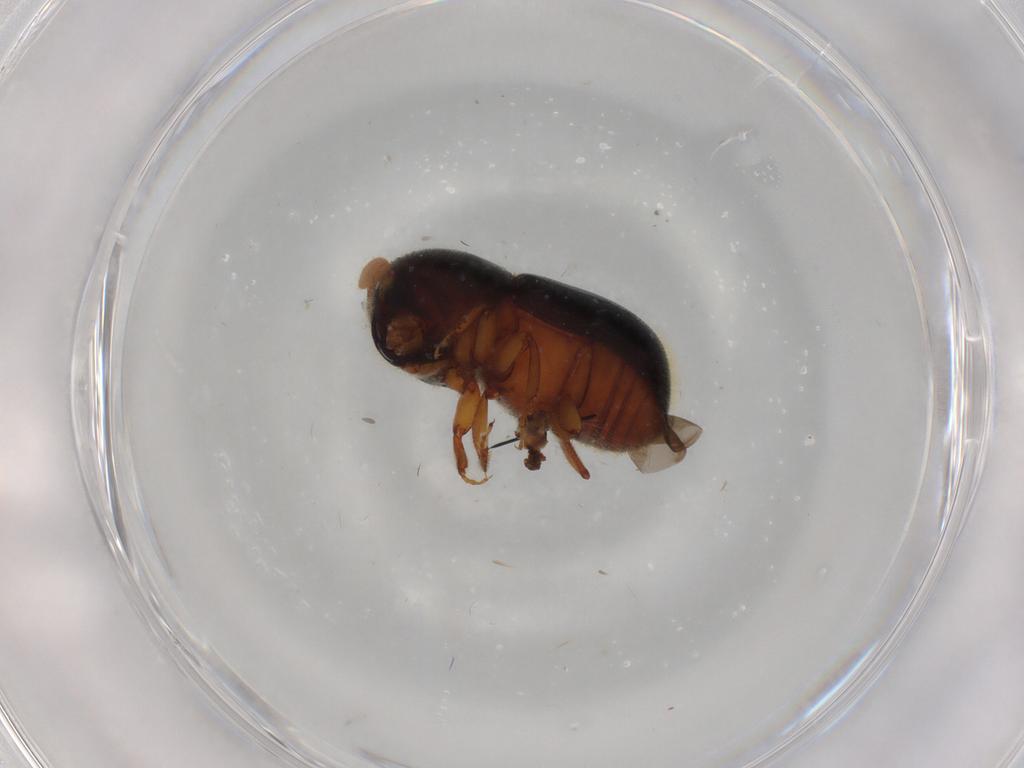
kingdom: Animalia
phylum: Arthropoda
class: Insecta
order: Coleoptera
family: Curculionidae
